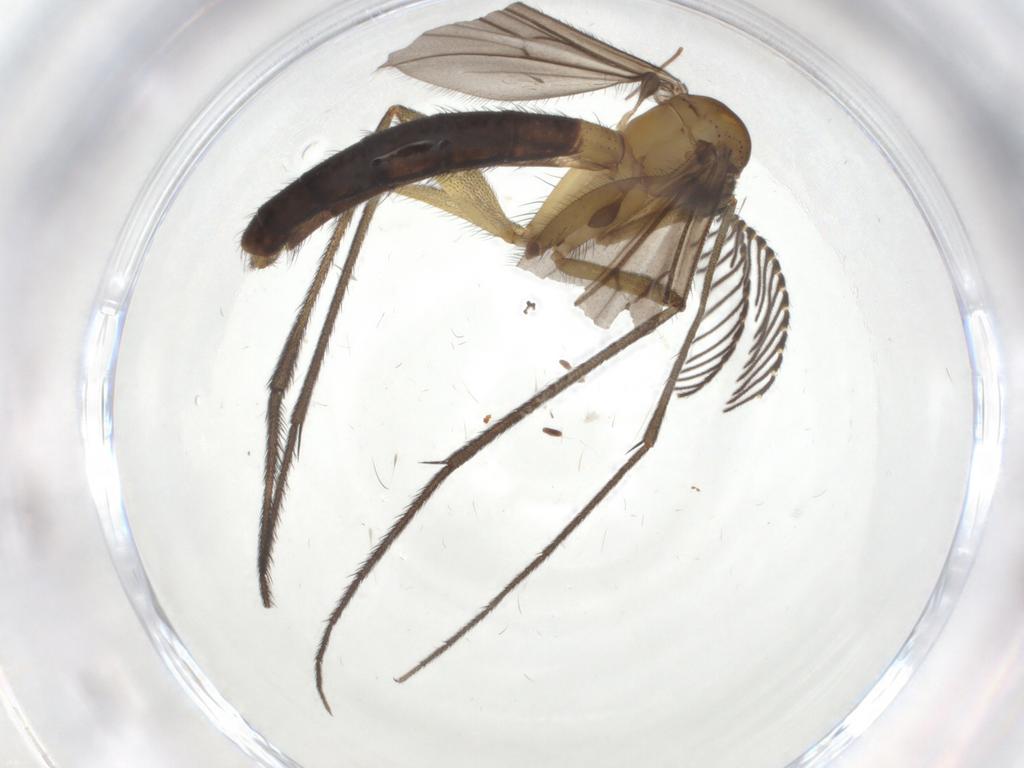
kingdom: Animalia
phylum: Arthropoda
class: Insecta
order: Diptera
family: Ditomyiidae
